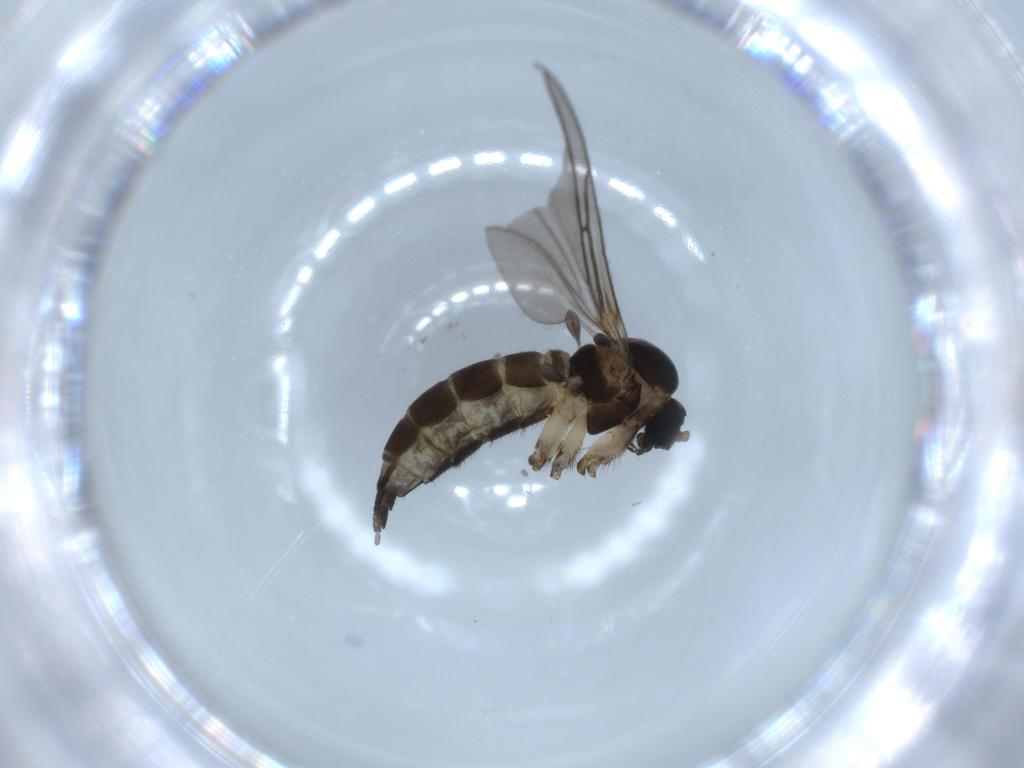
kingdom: Animalia
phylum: Arthropoda
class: Insecta
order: Diptera
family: Sciaridae
